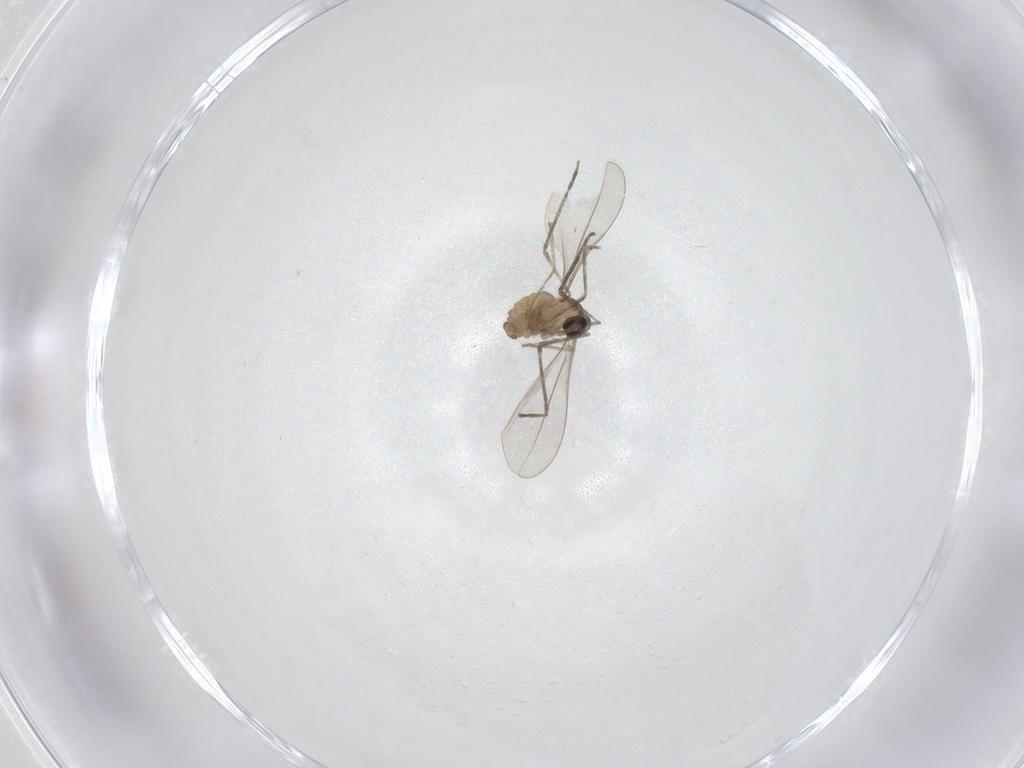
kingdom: Animalia
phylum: Arthropoda
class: Insecta
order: Diptera
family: Cecidomyiidae
